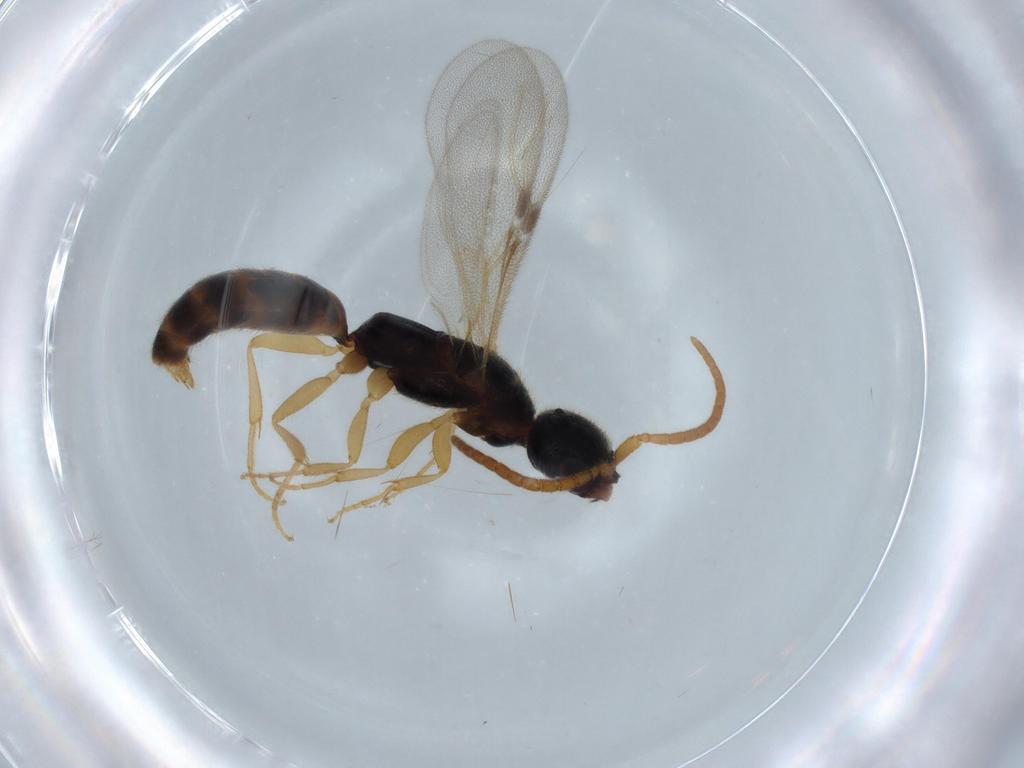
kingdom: Animalia
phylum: Arthropoda
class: Insecta
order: Hymenoptera
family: Bethylidae
